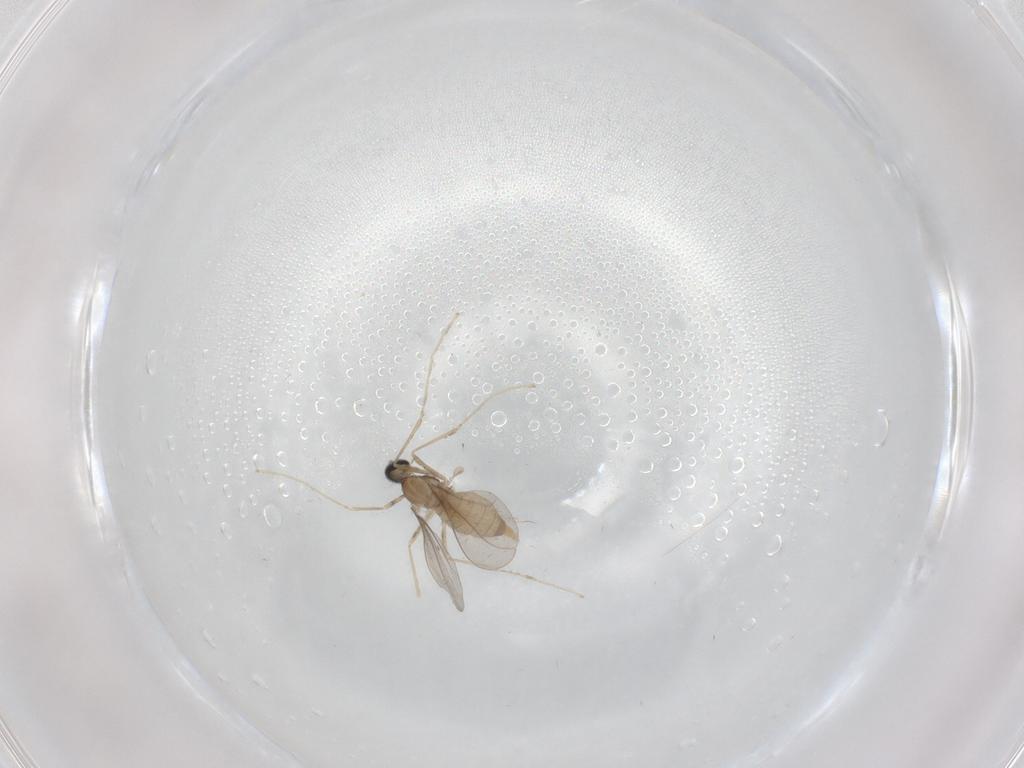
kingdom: Animalia
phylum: Arthropoda
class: Insecta
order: Diptera
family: Cecidomyiidae
